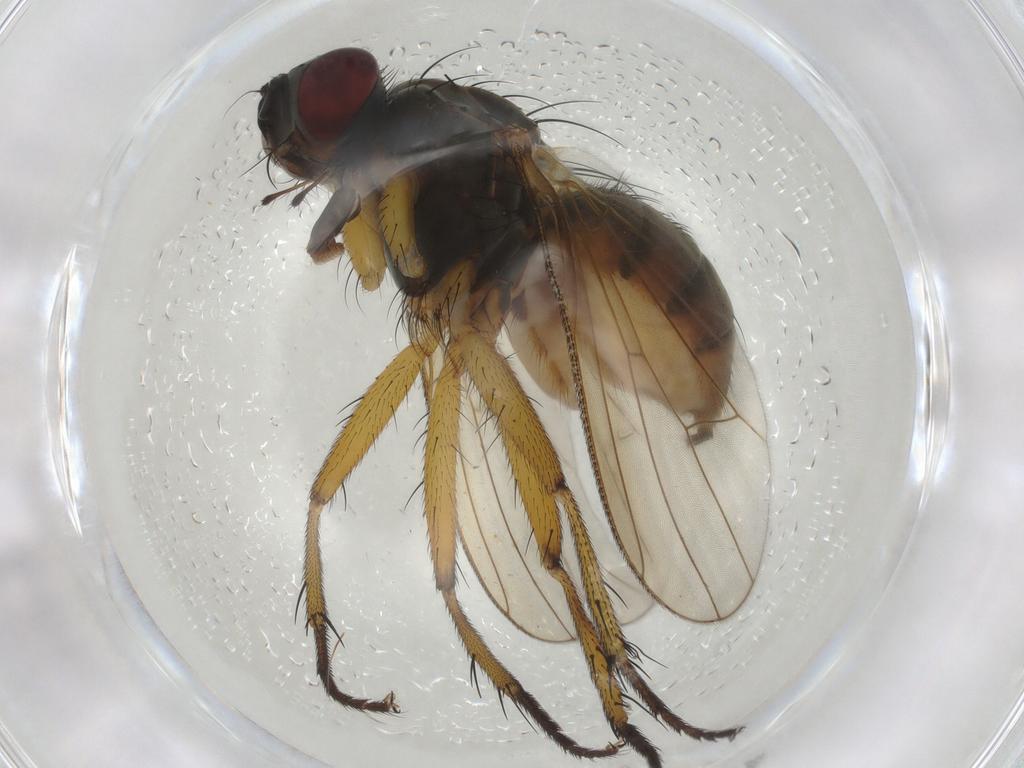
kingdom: Animalia
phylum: Arthropoda
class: Insecta
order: Diptera
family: Muscidae
